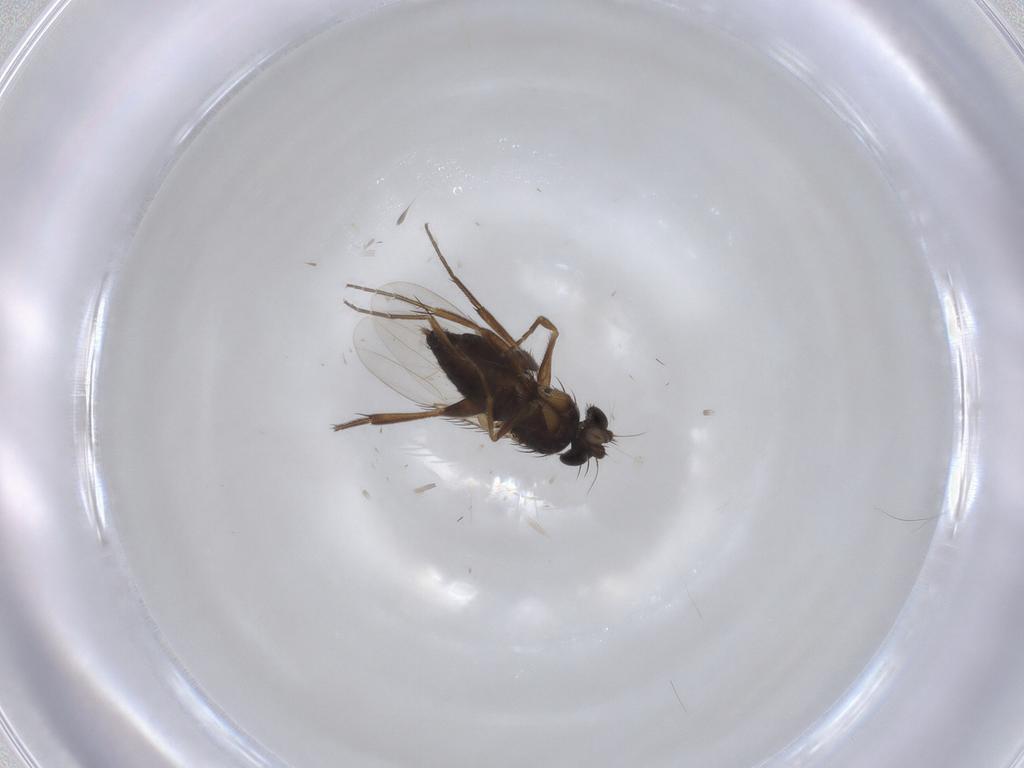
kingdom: Animalia
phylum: Arthropoda
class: Insecta
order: Diptera
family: Phoridae
